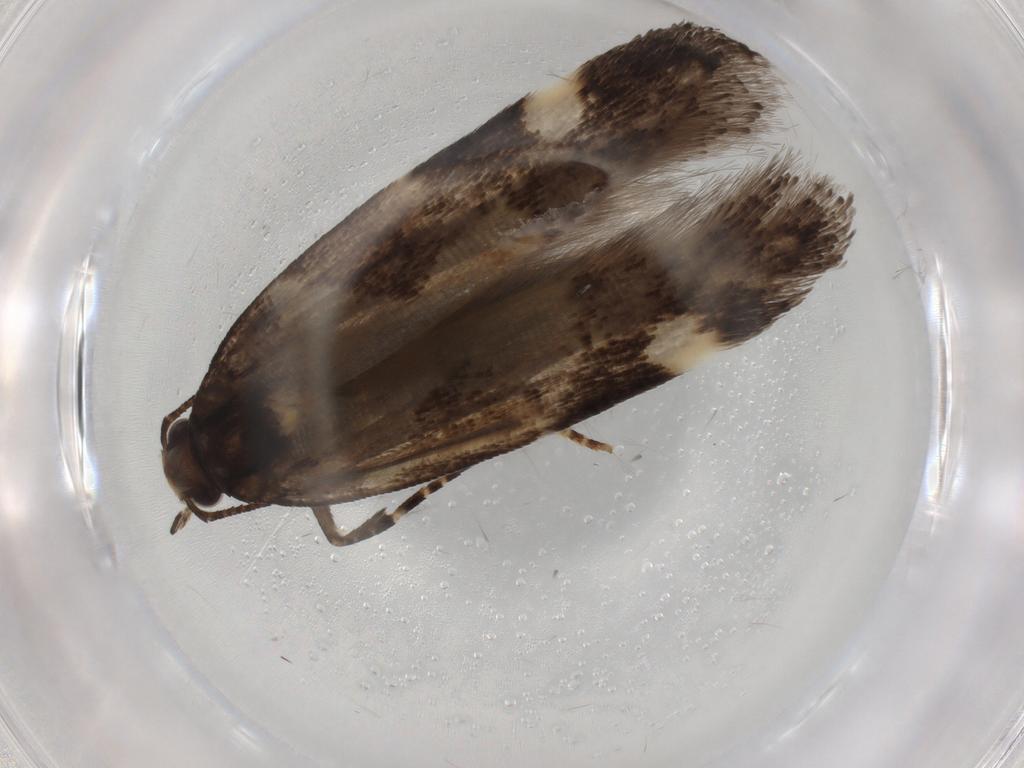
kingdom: Animalia
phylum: Arthropoda
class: Insecta
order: Lepidoptera
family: Gelechiidae
